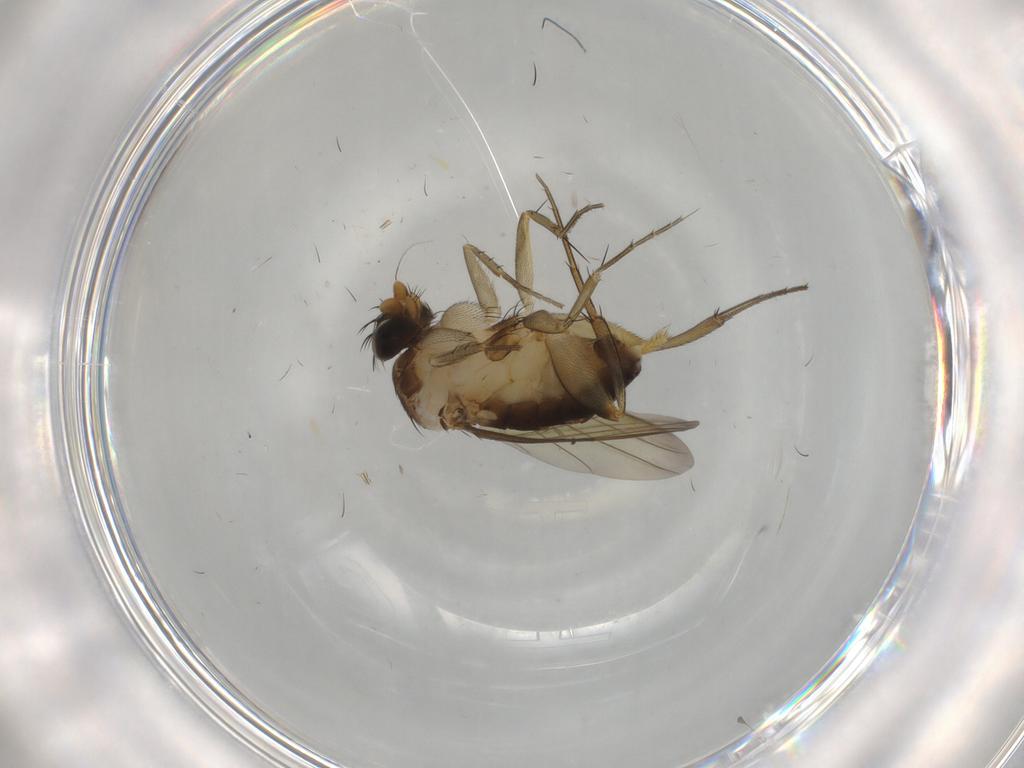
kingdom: Animalia
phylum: Arthropoda
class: Insecta
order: Diptera
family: Phoridae
